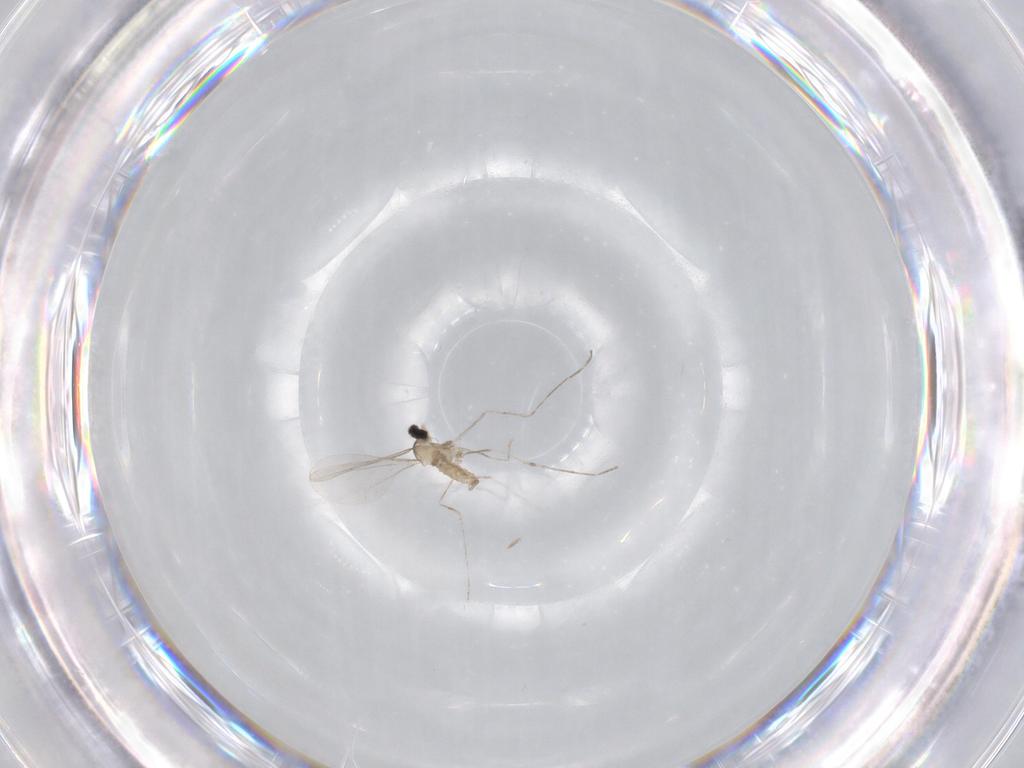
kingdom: Animalia
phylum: Arthropoda
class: Insecta
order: Diptera
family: Cecidomyiidae
